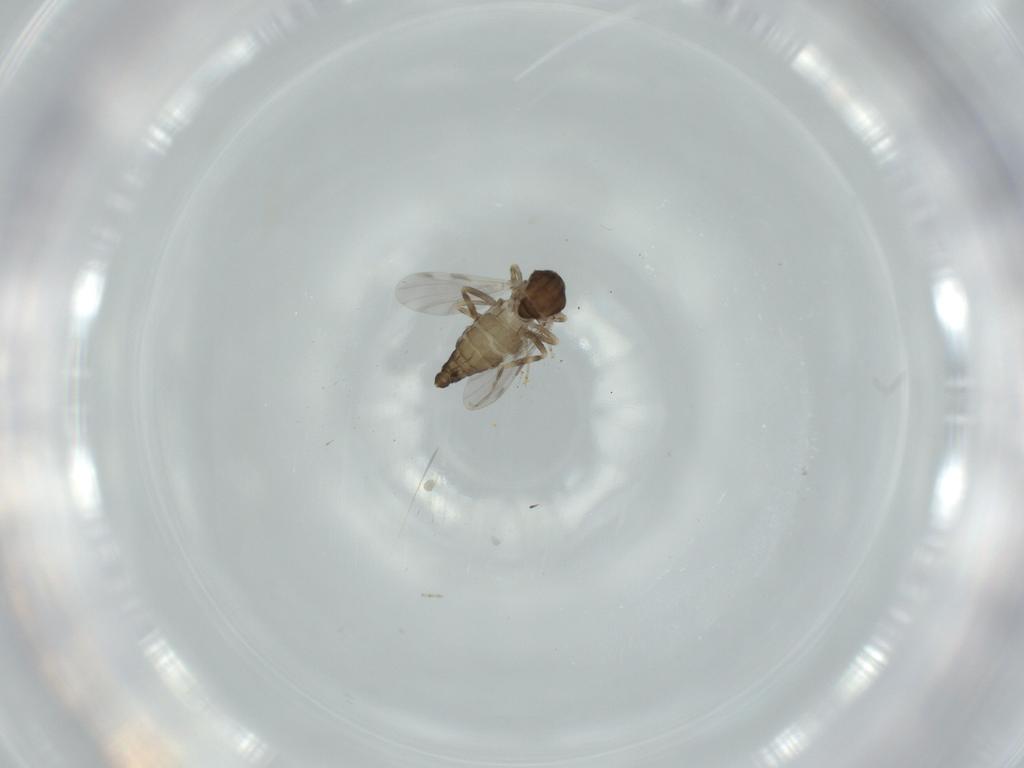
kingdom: Animalia
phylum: Arthropoda
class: Insecta
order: Diptera
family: Ceratopogonidae
